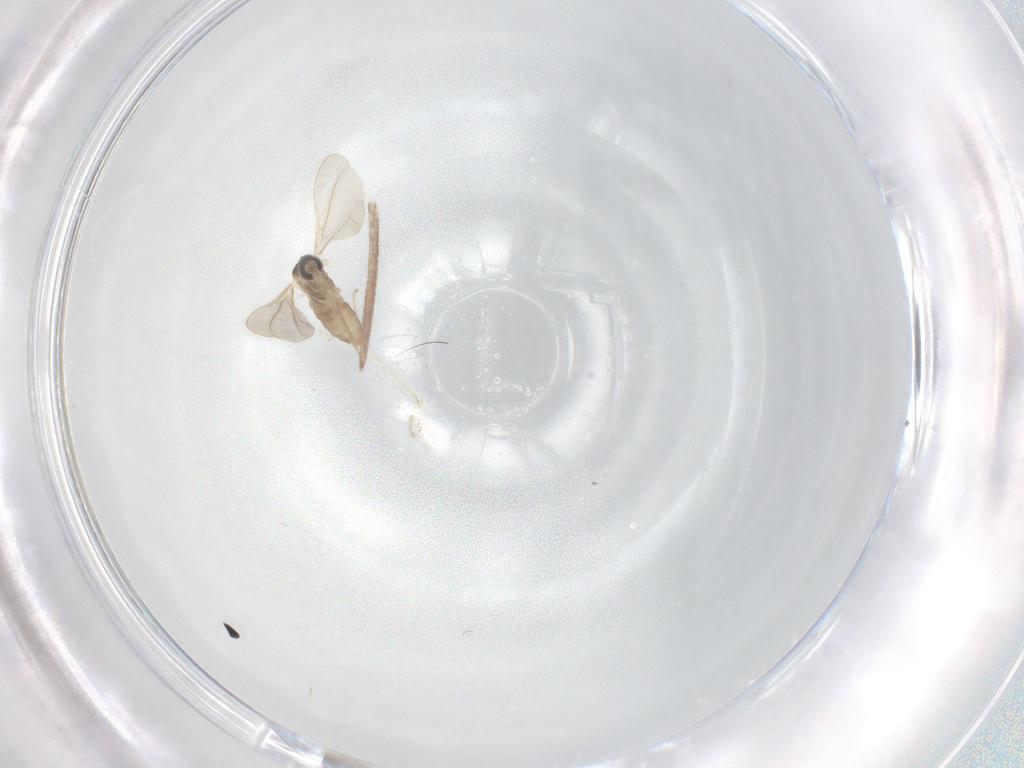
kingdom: Animalia
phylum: Arthropoda
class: Insecta
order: Diptera
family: Cecidomyiidae
